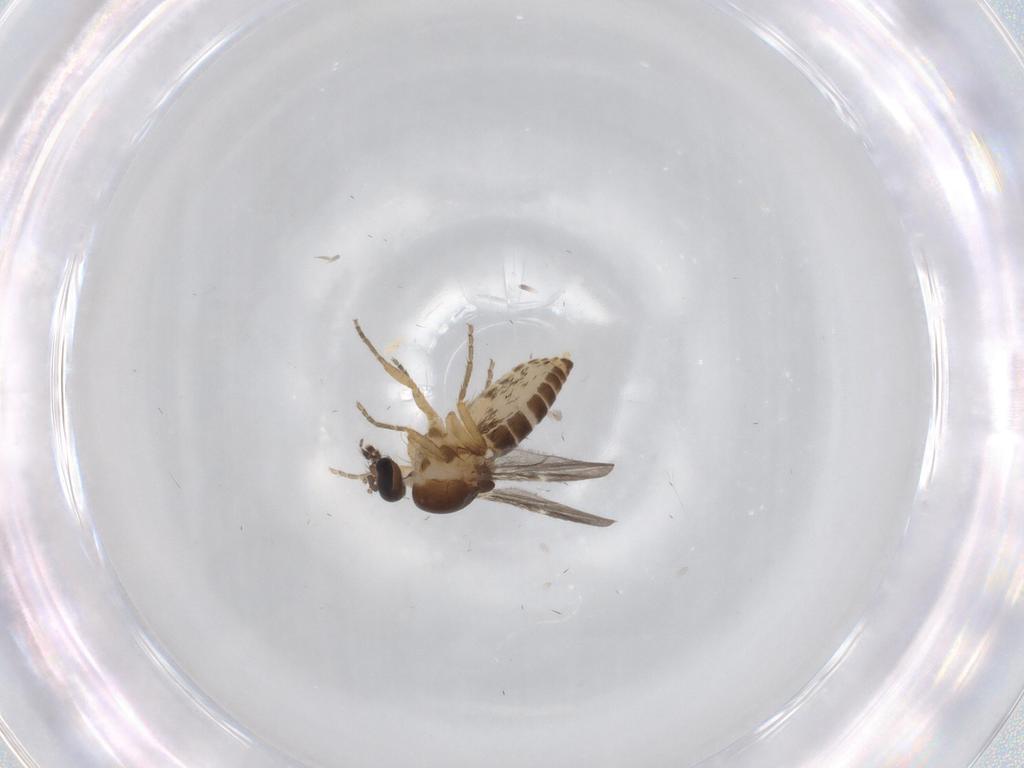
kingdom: Animalia
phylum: Arthropoda
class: Insecta
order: Diptera
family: Ceratopogonidae
